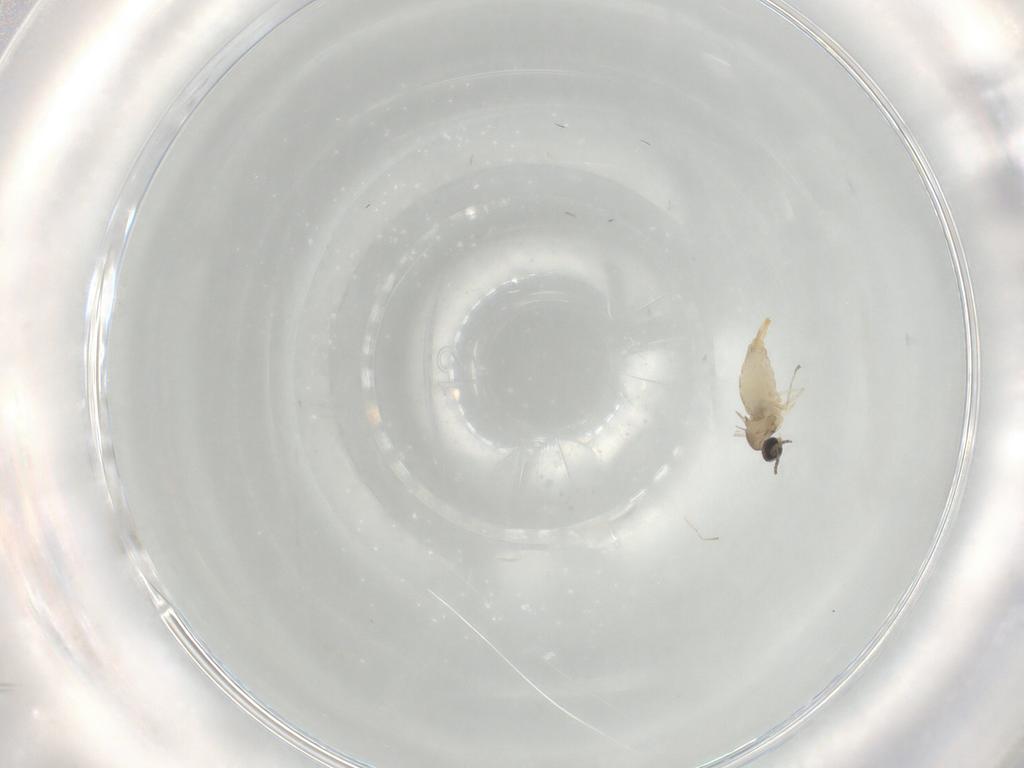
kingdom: Animalia
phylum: Arthropoda
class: Insecta
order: Diptera
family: Cecidomyiidae
